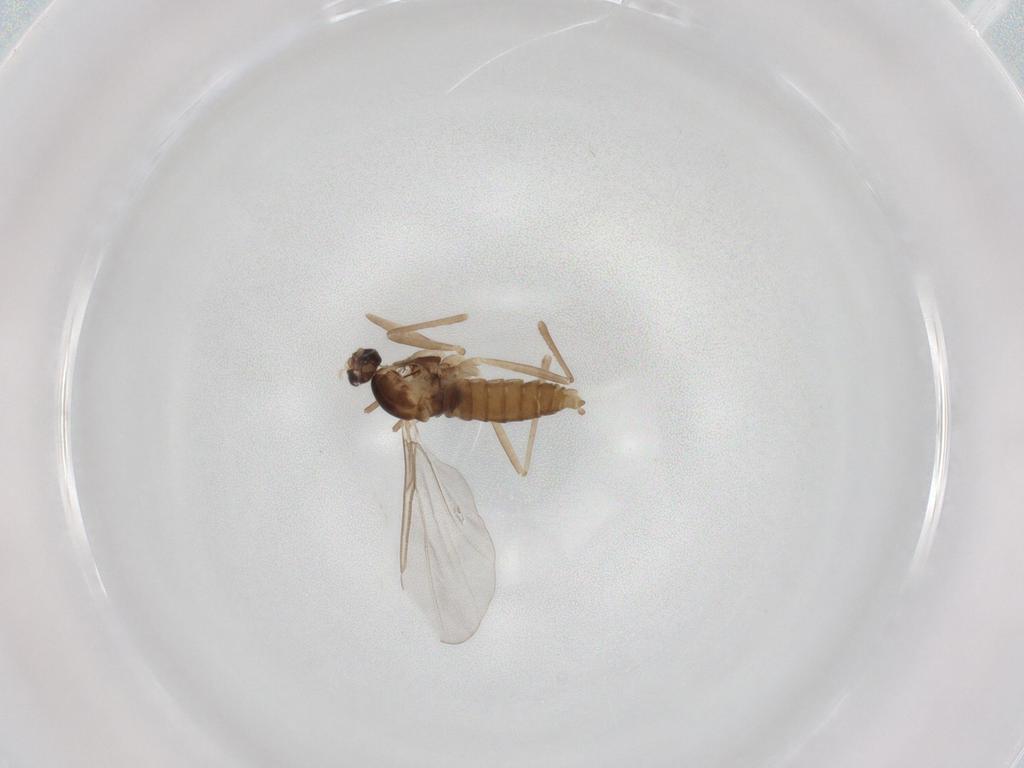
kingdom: Animalia
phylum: Arthropoda
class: Insecta
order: Diptera
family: Cecidomyiidae
